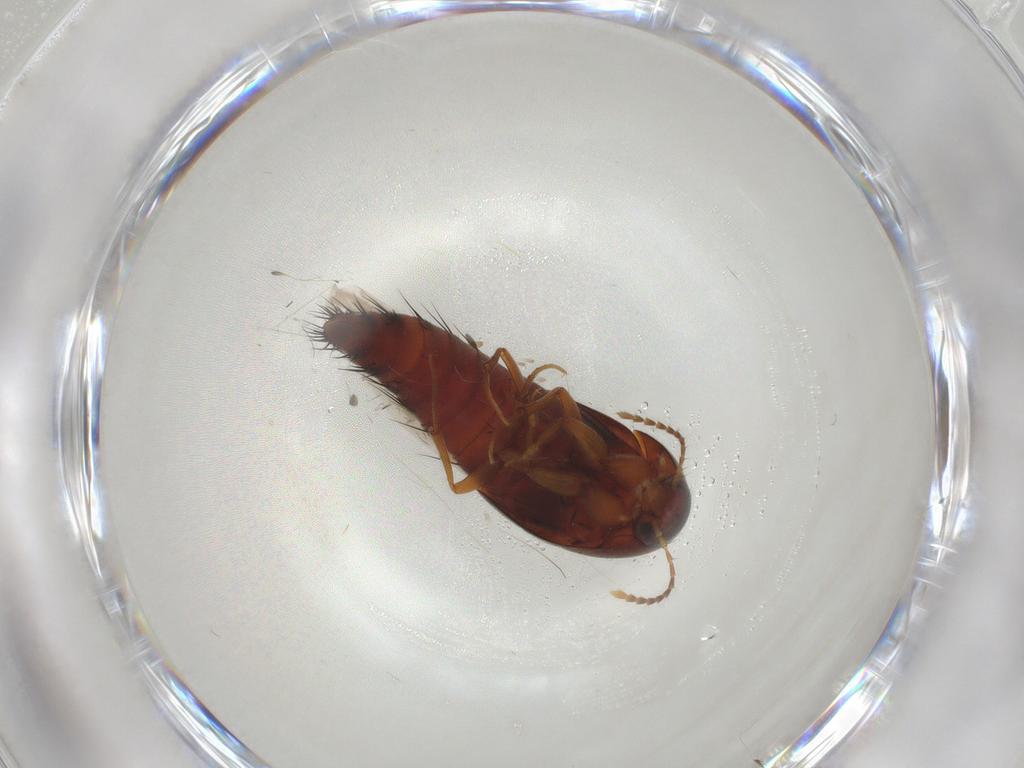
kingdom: Animalia
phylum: Arthropoda
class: Insecta
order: Coleoptera
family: Staphylinidae
